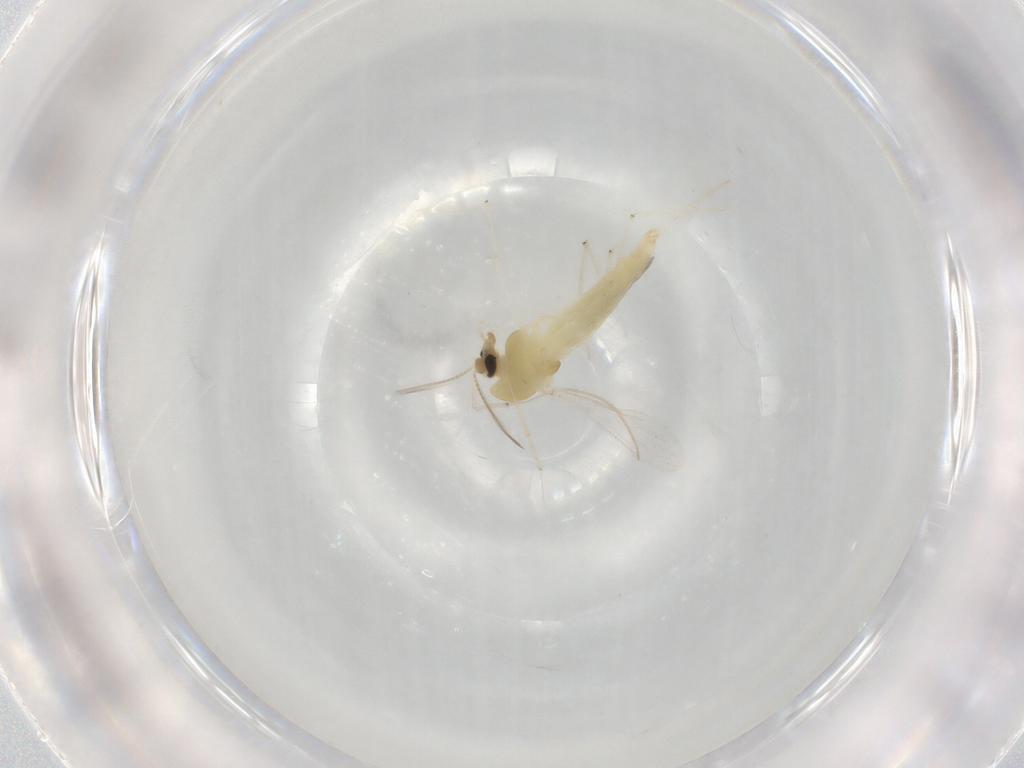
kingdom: Animalia
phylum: Arthropoda
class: Insecta
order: Diptera
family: Chironomidae
